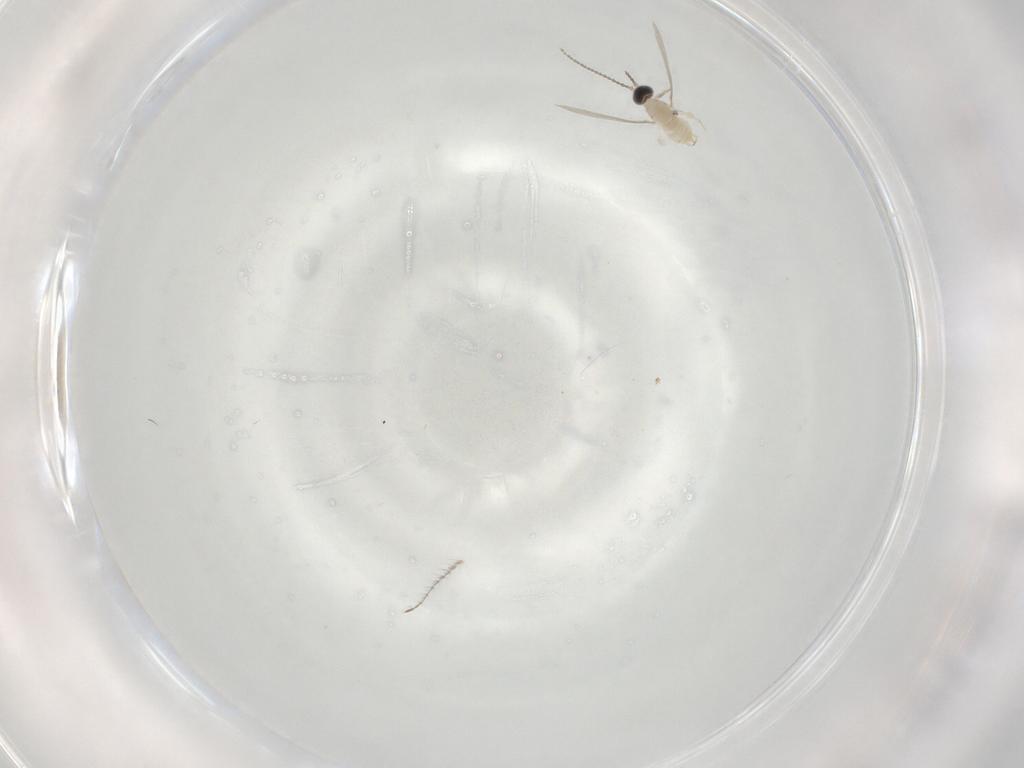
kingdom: Animalia
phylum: Arthropoda
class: Insecta
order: Diptera
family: Cecidomyiidae
